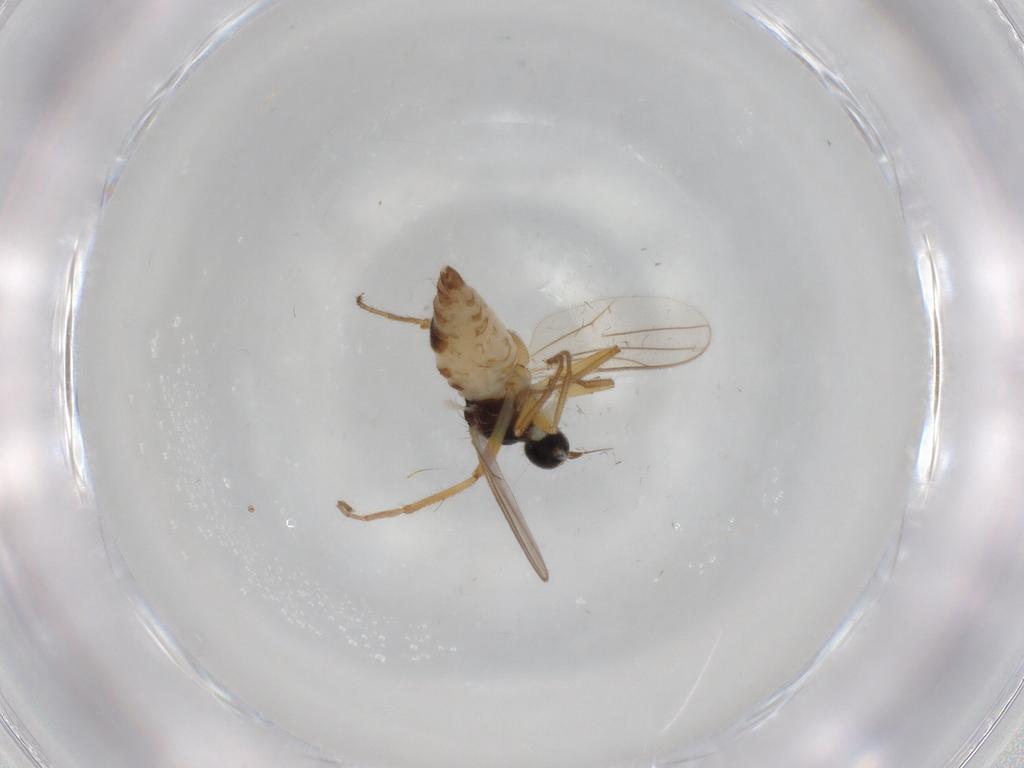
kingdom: Animalia
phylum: Arthropoda
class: Insecta
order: Diptera
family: Hybotidae
